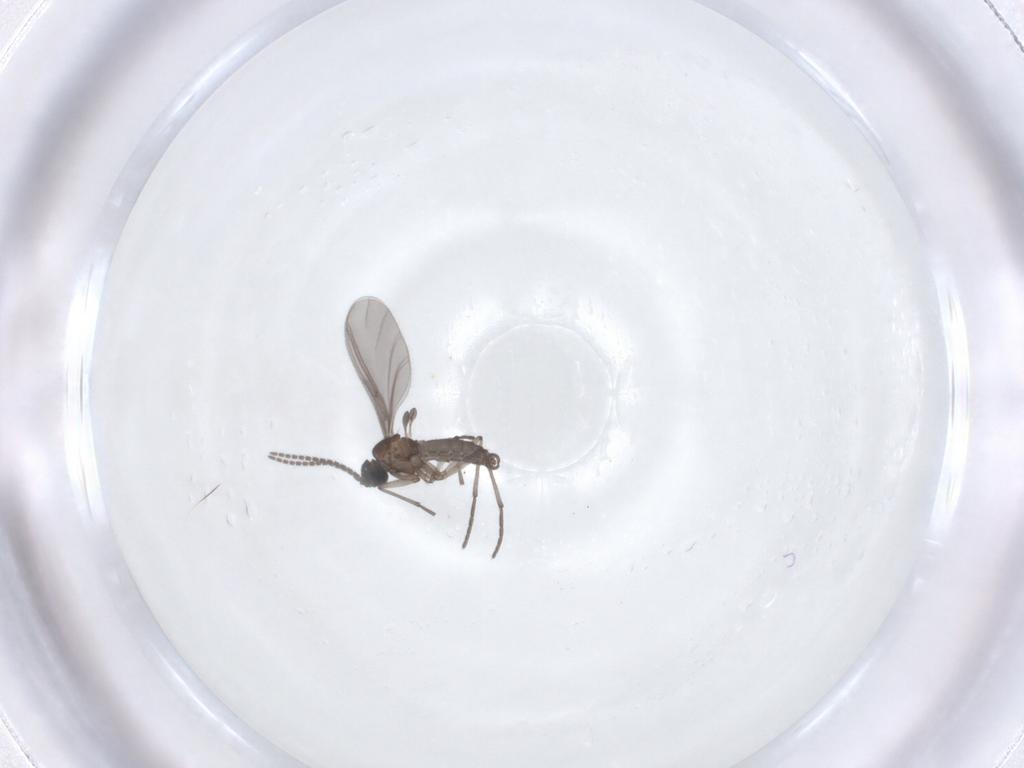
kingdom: Animalia
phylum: Arthropoda
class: Insecta
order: Diptera
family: Sciaridae
